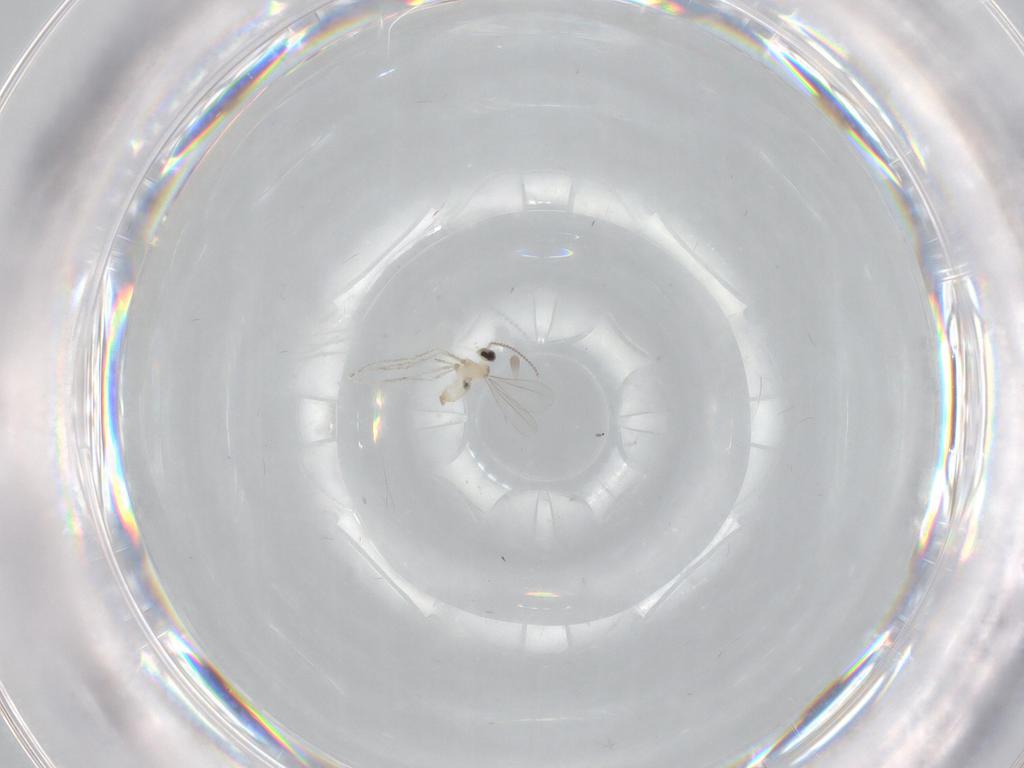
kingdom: Animalia
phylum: Arthropoda
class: Insecta
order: Diptera
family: Cecidomyiidae
